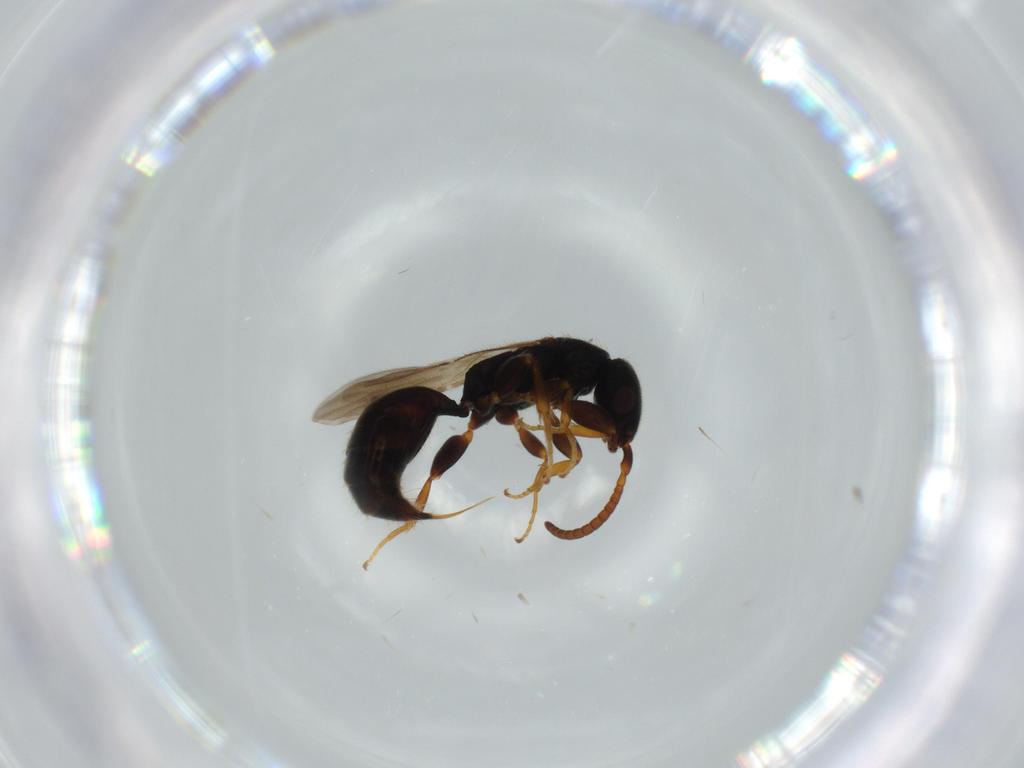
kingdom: Animalia
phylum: Arthropoda
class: Insecta
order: Hymenoptera
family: Bethylidae
